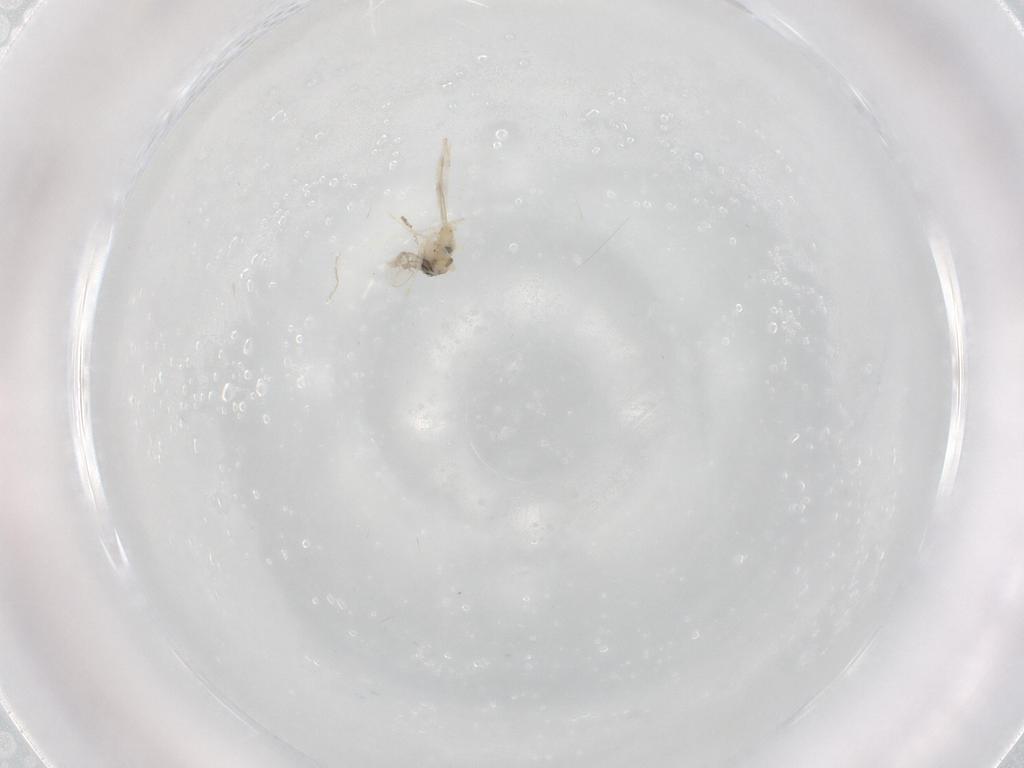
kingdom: Animalia
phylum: Arthropoda
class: Insecta
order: Diptera
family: Cecidomyiidae
